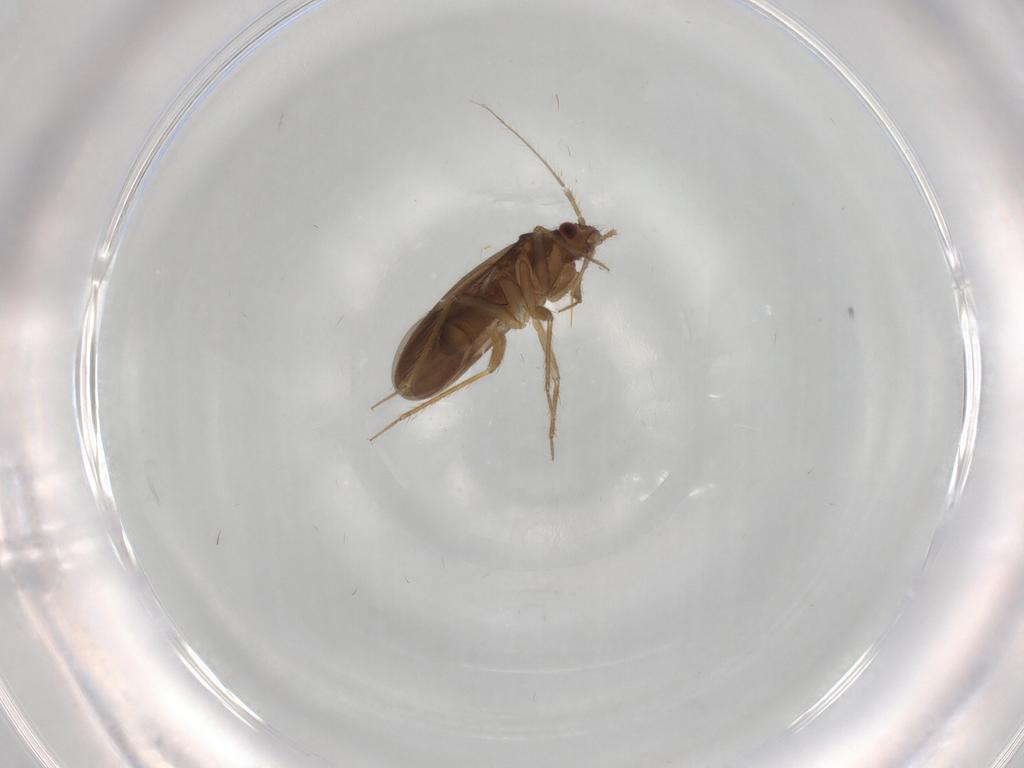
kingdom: Animalia
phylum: Arthropoda
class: Insecta
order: Hemiptera
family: Ceratocombidae
